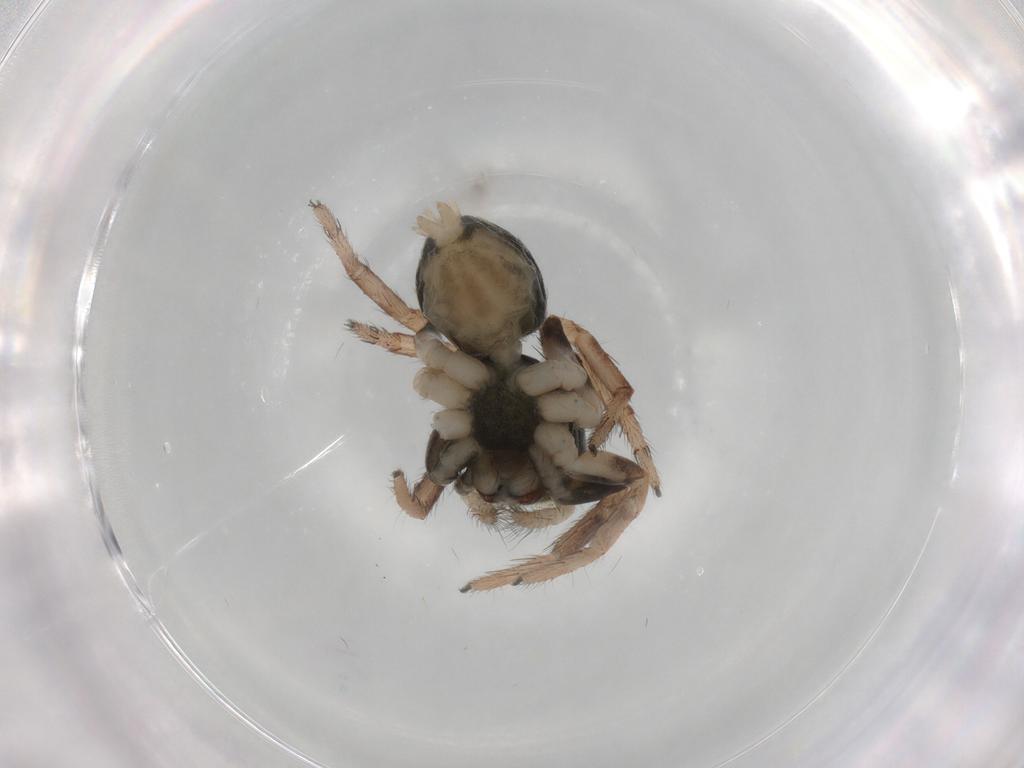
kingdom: Animalia
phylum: Arthropoda
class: Arachnida
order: Araneae
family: Salticidae
